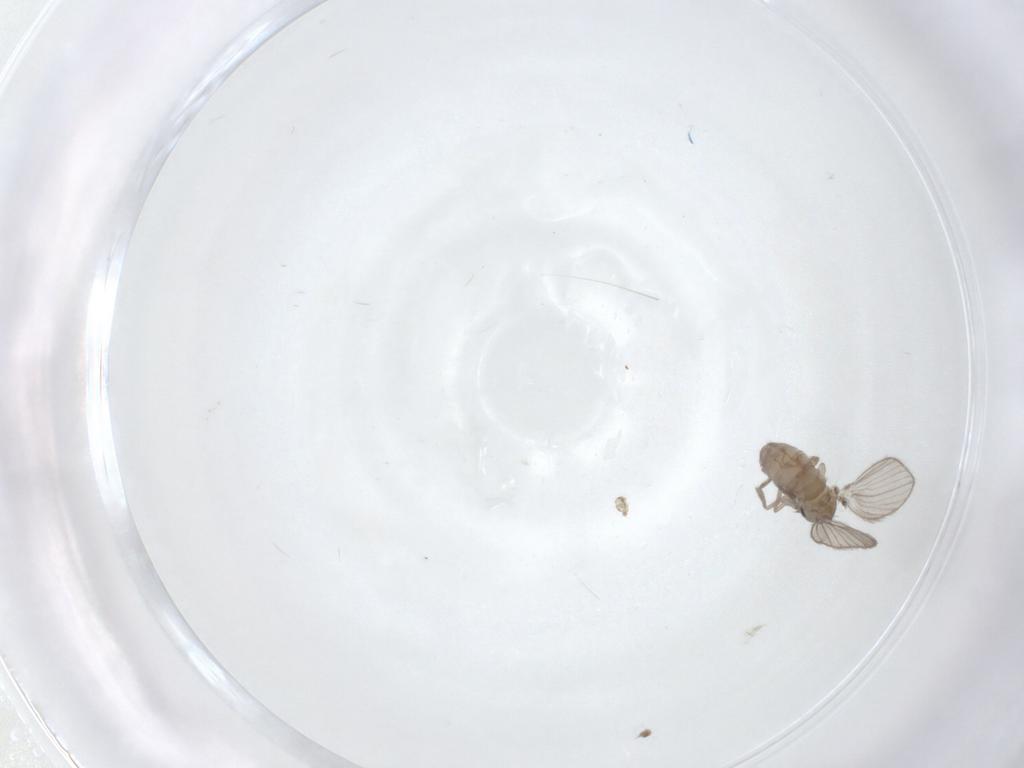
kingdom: Animalia
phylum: Arthropoda
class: Insecta
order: Diptera
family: Psychodidae
